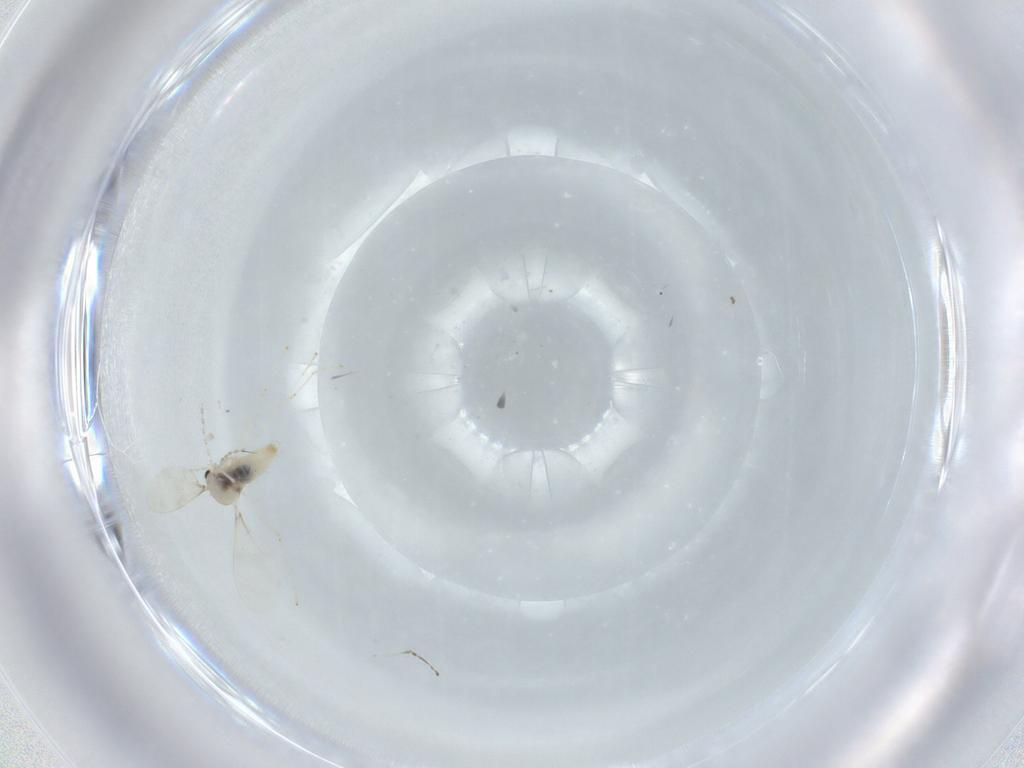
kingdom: Animalia
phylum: Arthropoda
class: Insecta
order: Diptera
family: Cecidomyiidae
